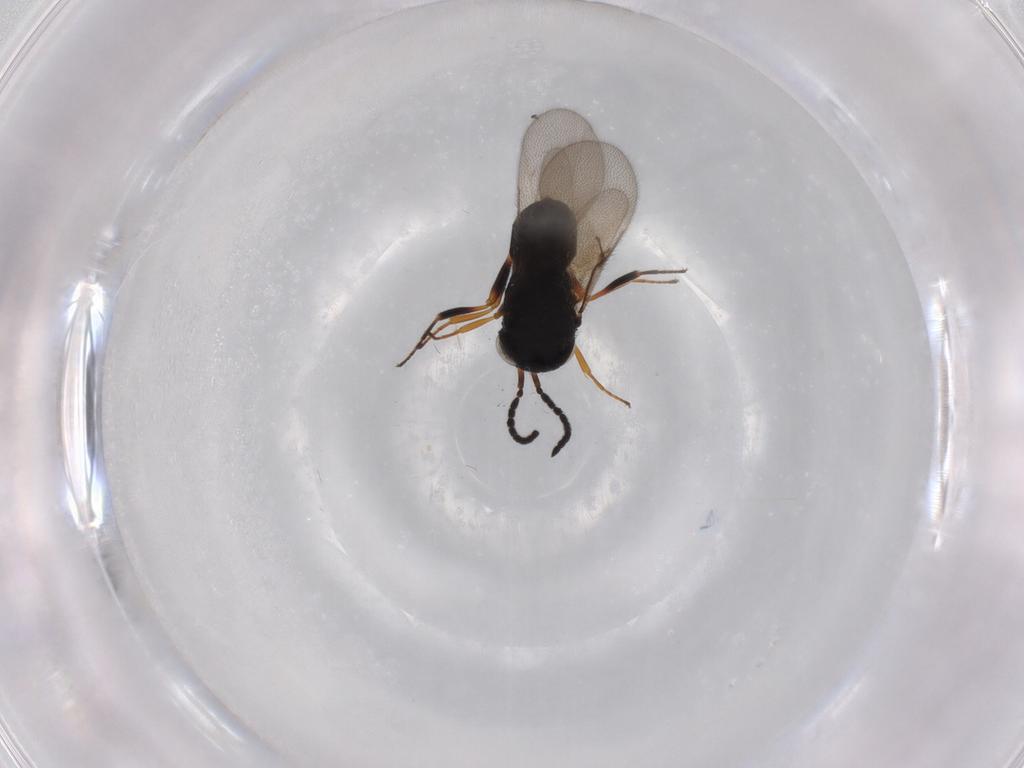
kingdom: Animalia
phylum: Arthropoda
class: Insecta
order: Hymenoptera
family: Scelionidae
